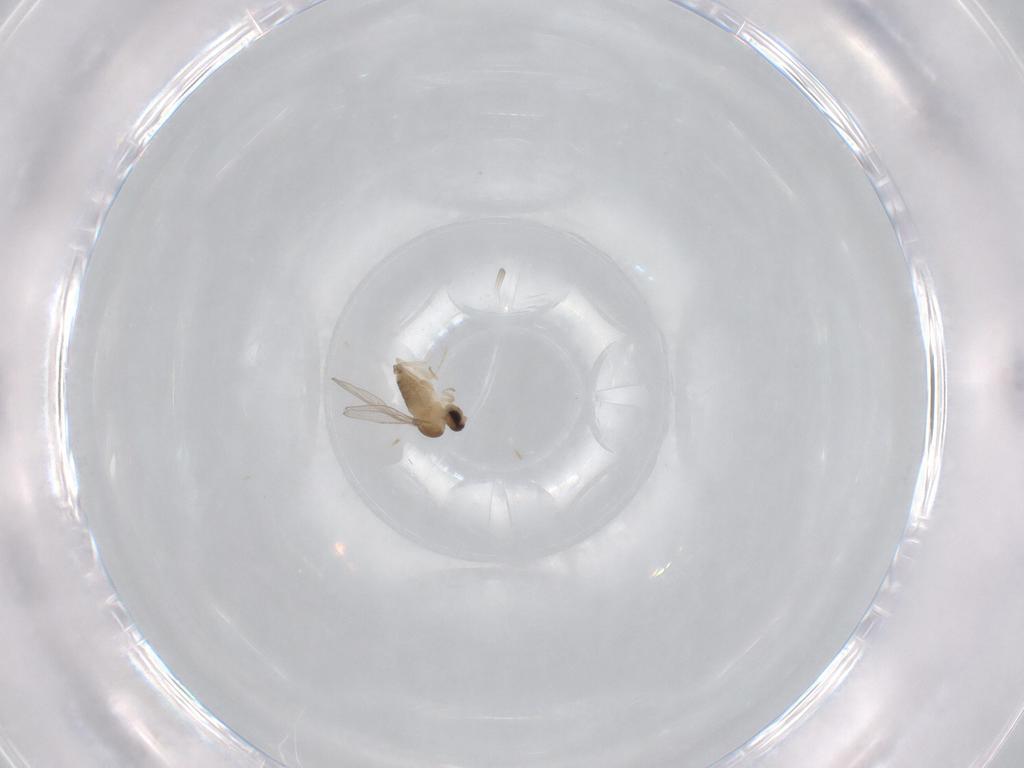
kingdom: Animalia
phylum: Arthropoda
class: Insecta
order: Diptera
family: Cecidomyiidae
